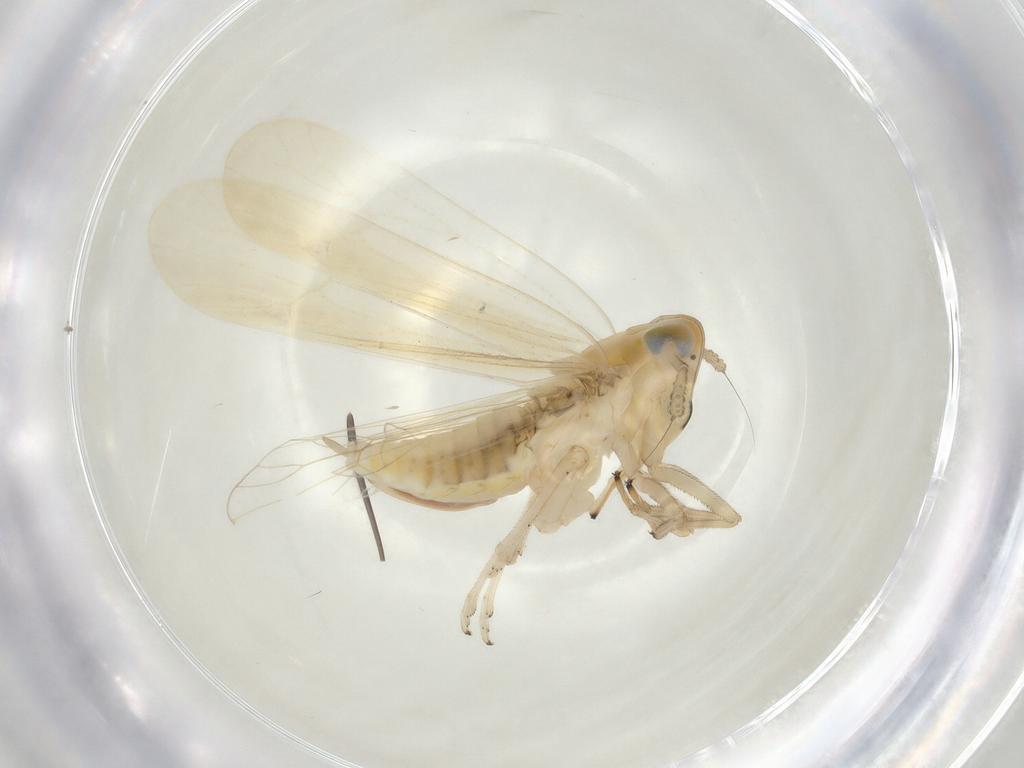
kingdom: Animalia
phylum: Arthropoda
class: Insecta
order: Hemiptera
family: Delphacidae
